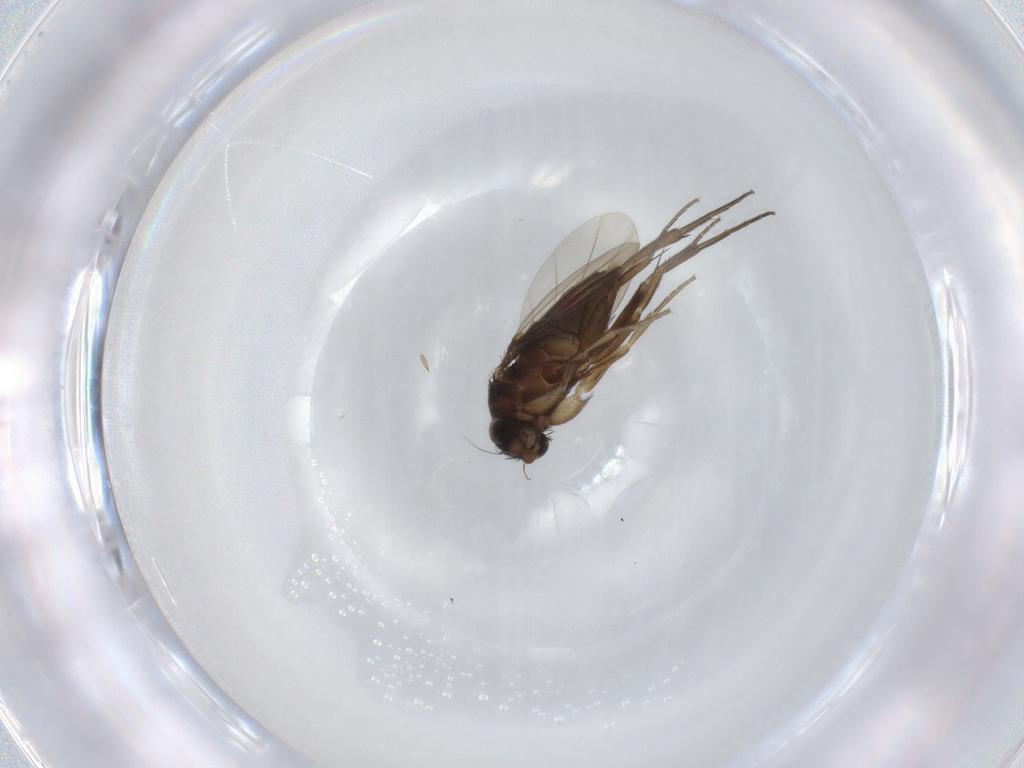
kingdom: Animalia
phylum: Arthropoda
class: Insecta
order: Diptera
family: Phoridae
